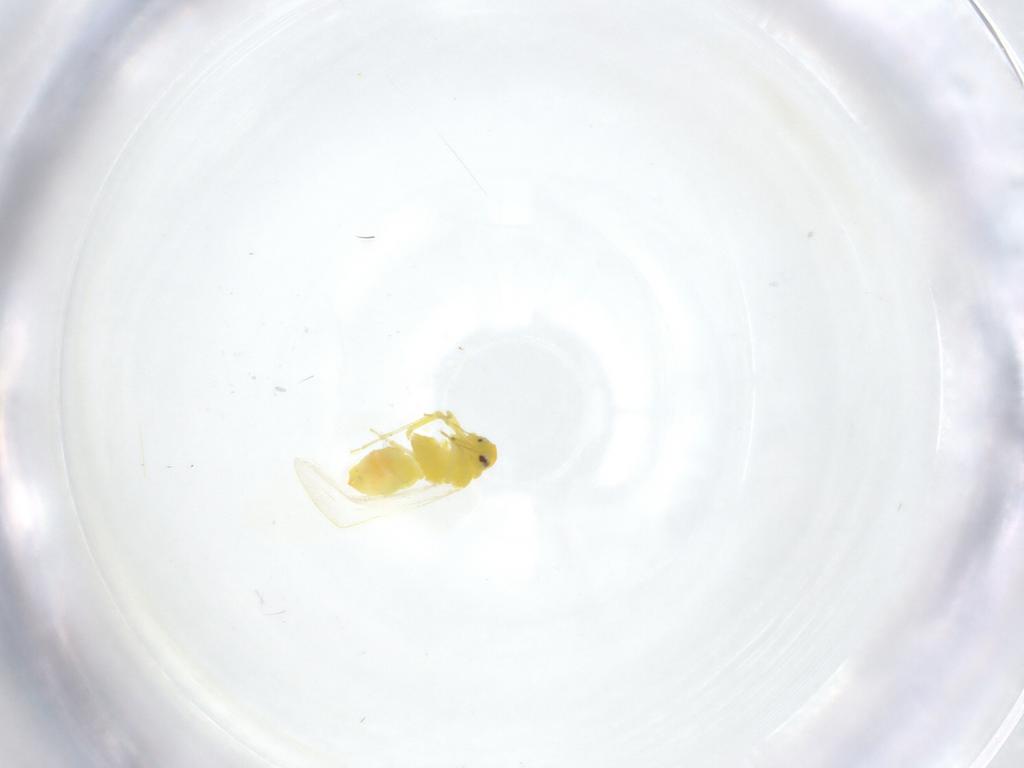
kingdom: Animalia
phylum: Arthropoda
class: Insecta
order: Hemiptera
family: Aleyrodidae
